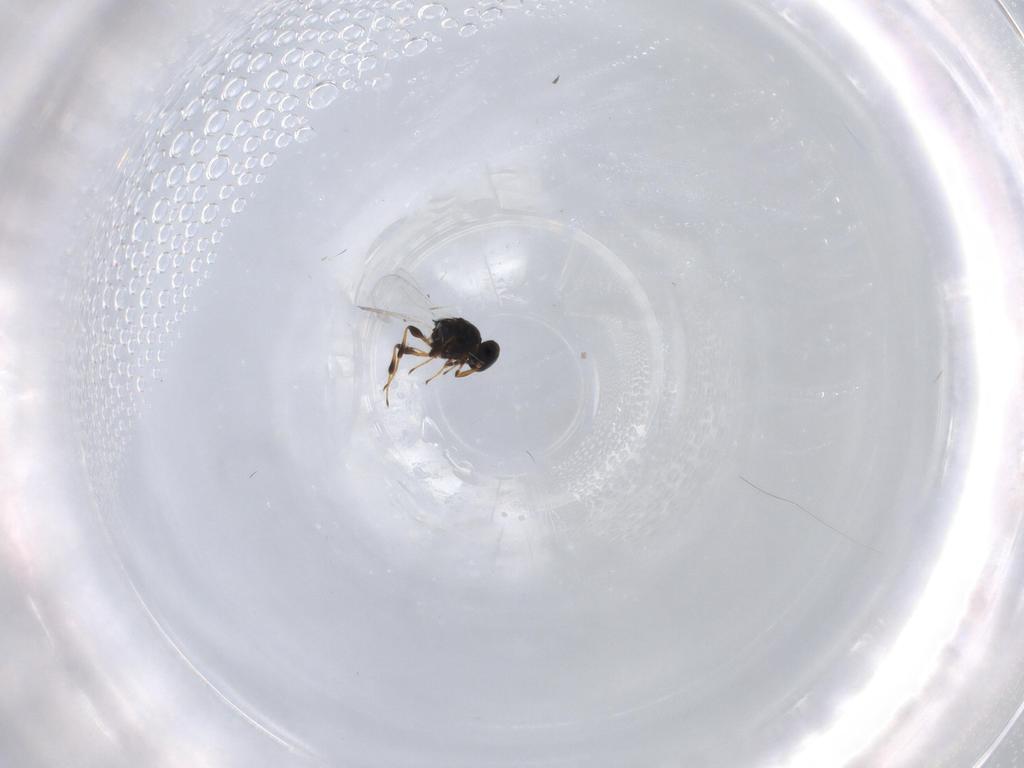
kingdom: Animalia
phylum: Arthropoda
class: Insecta
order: Hymenoptera
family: Platygastridae
